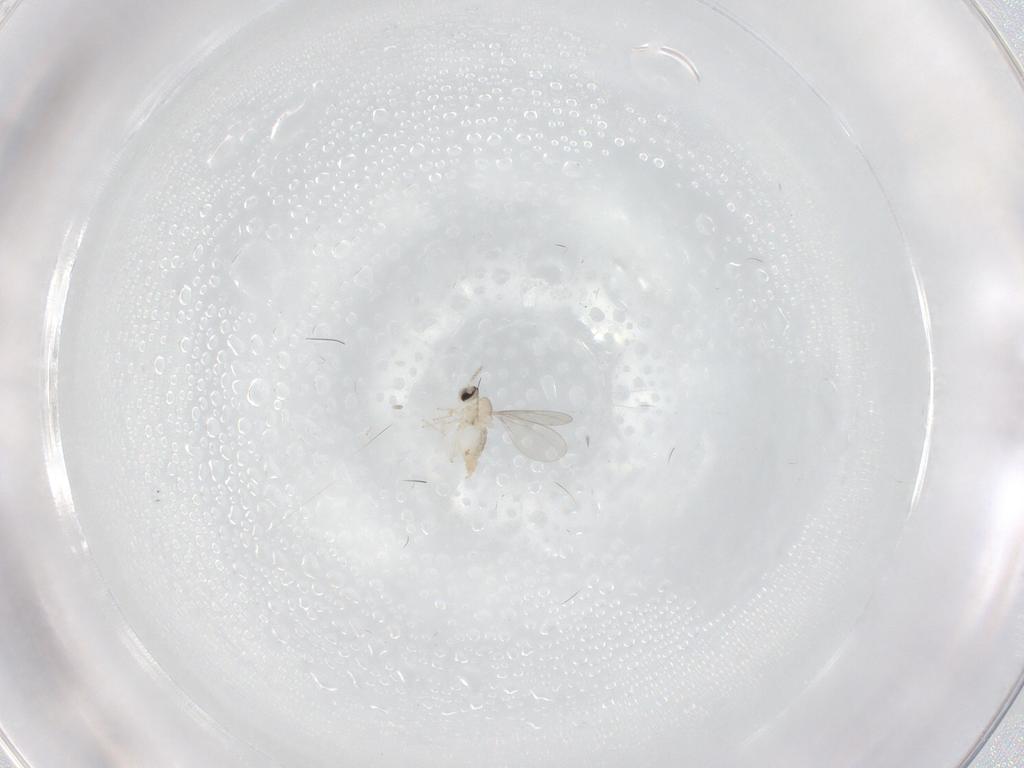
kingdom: Animalia
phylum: Arthropoda
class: Insecta
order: Diptera
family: Cecidomyiidae
